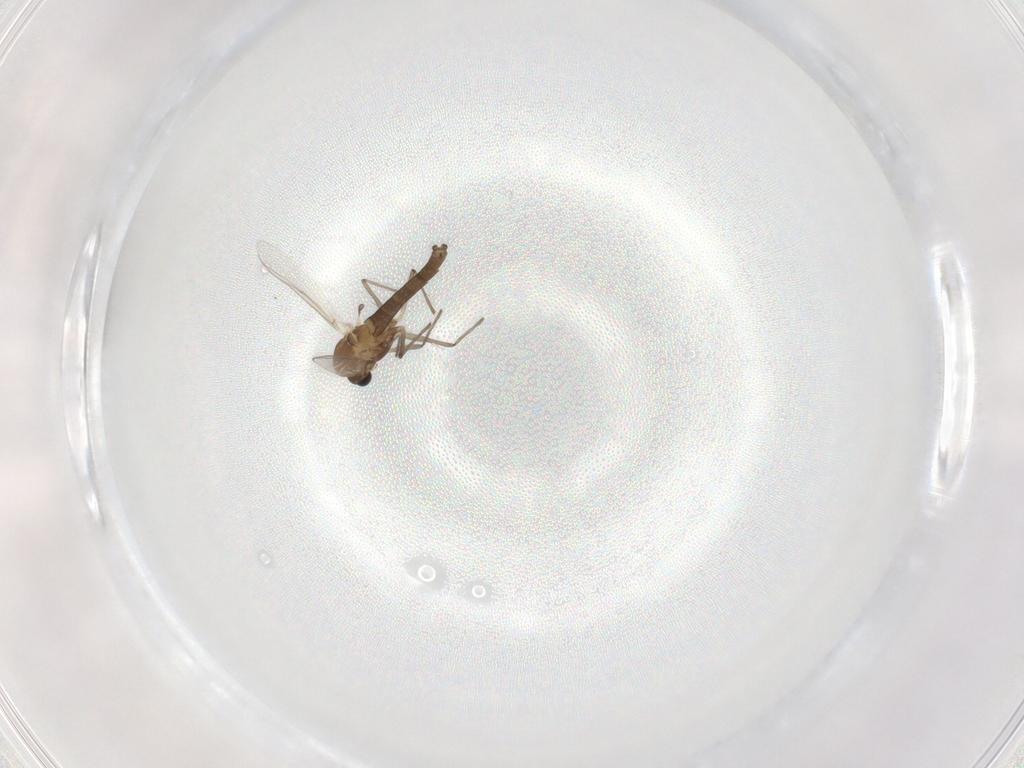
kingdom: Animalia
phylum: Arthropoda
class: Insecta
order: Diptera
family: Chironomidae
